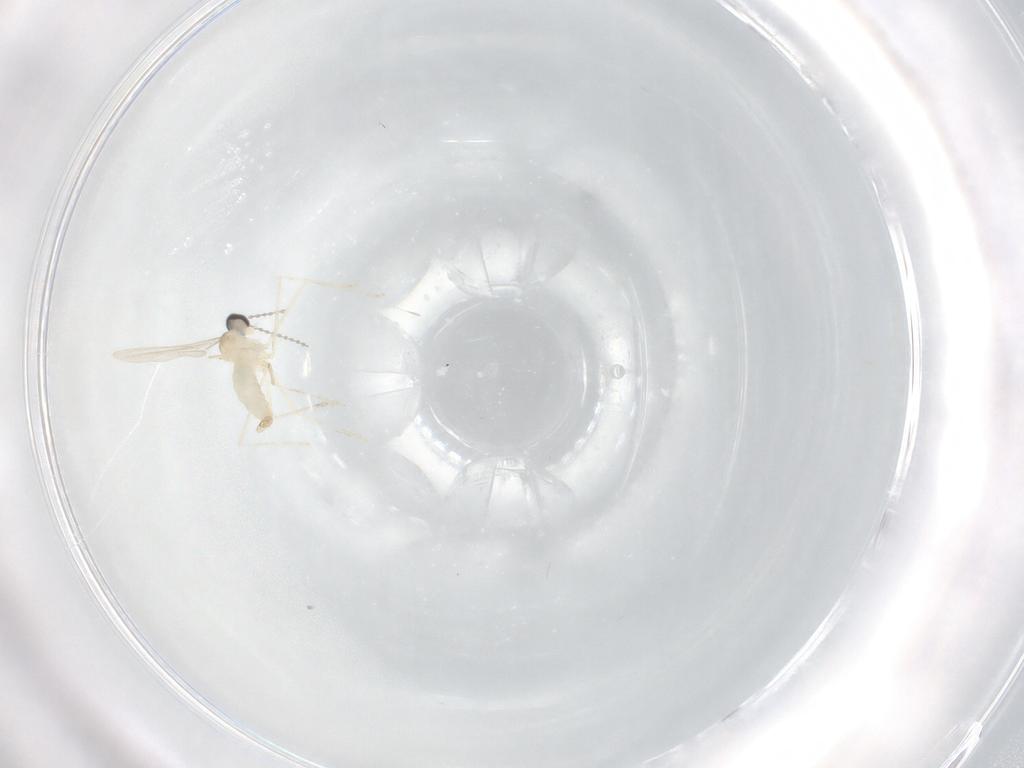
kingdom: Animalia
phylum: Arthropoda
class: Insecta
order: Diptera
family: Cecidomyiidae
